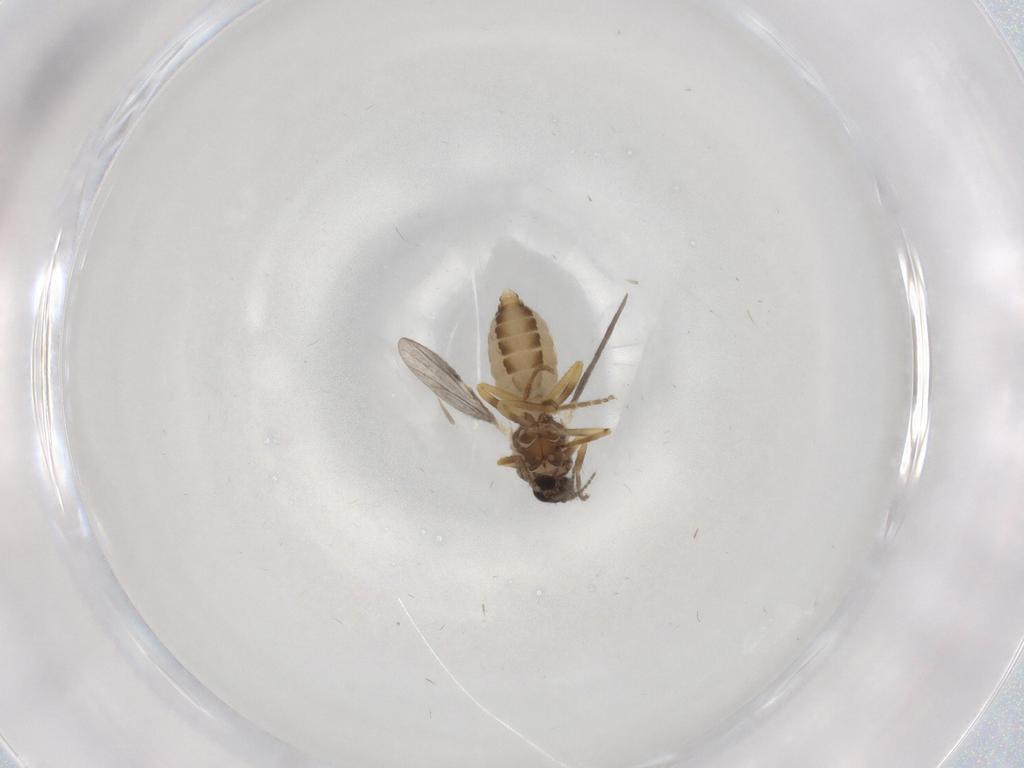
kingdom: Animalia
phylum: Arthropoda
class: Insecta
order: Diptera
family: Ceratopogonidae
